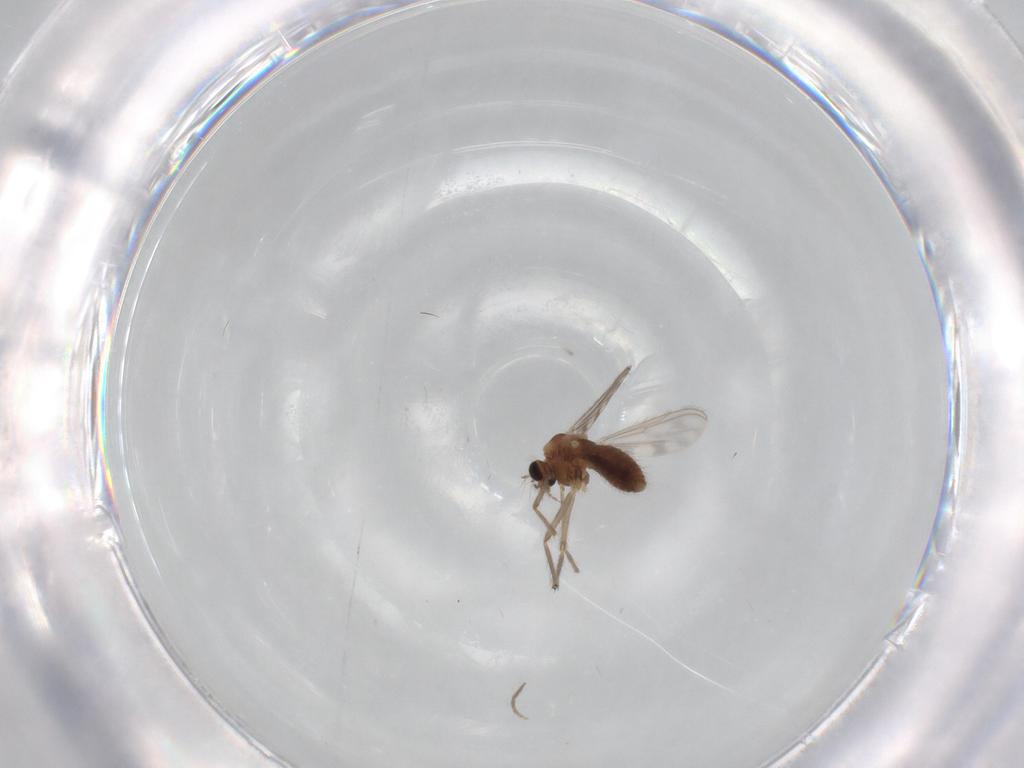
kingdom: Animalia
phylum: Arthropoda
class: Insecta
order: Diptera
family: Chironomidae
